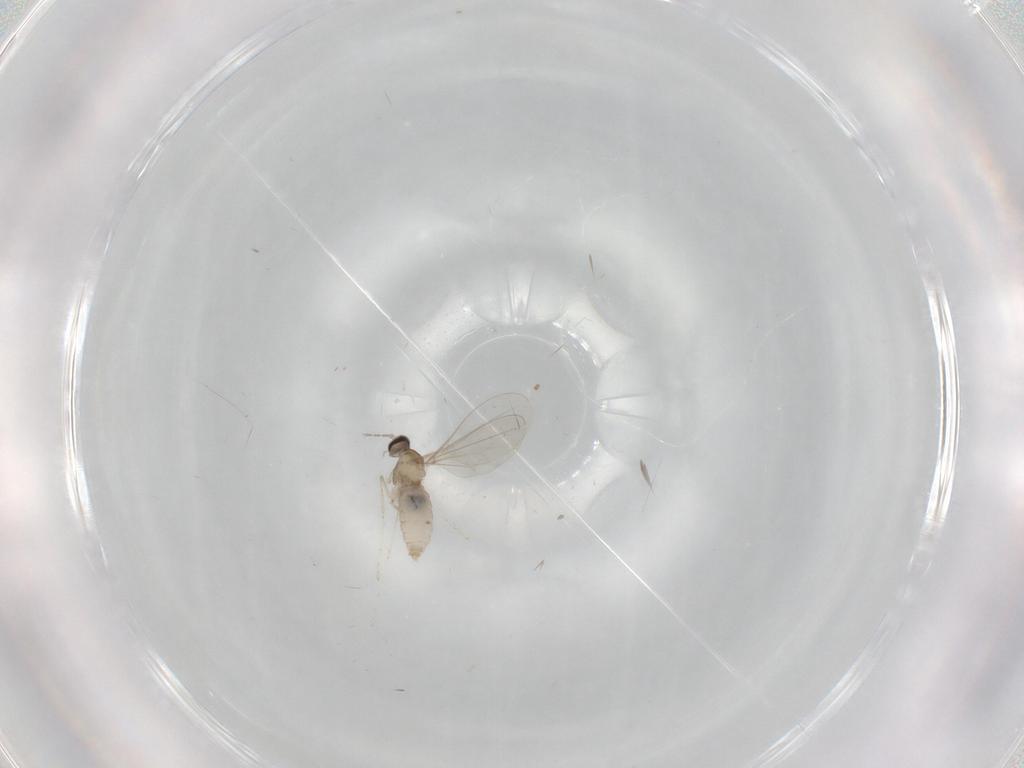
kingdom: Animalia
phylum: Arthropoda
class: Insecta
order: Diptera
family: Cecidomyiidae
